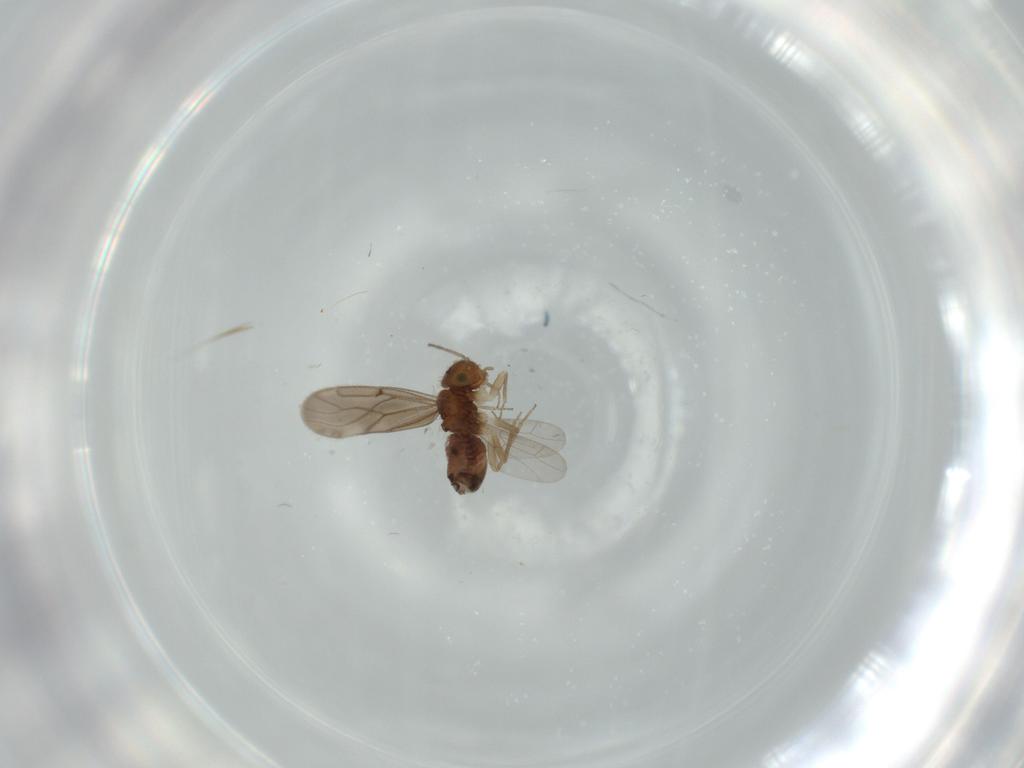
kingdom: Animalia
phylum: Arthropoda
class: Insecta
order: Psocodea
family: Ectopsocidae
